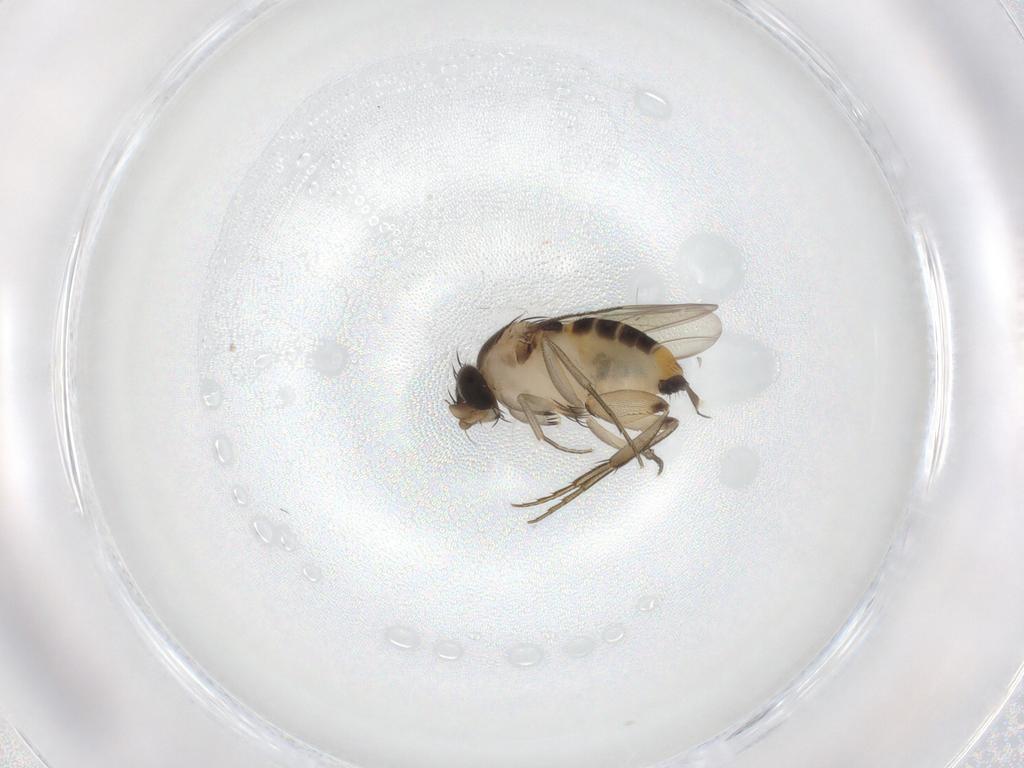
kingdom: Animalia
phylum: Arthropoda
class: Insecta
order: Diptera
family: Phoridae
